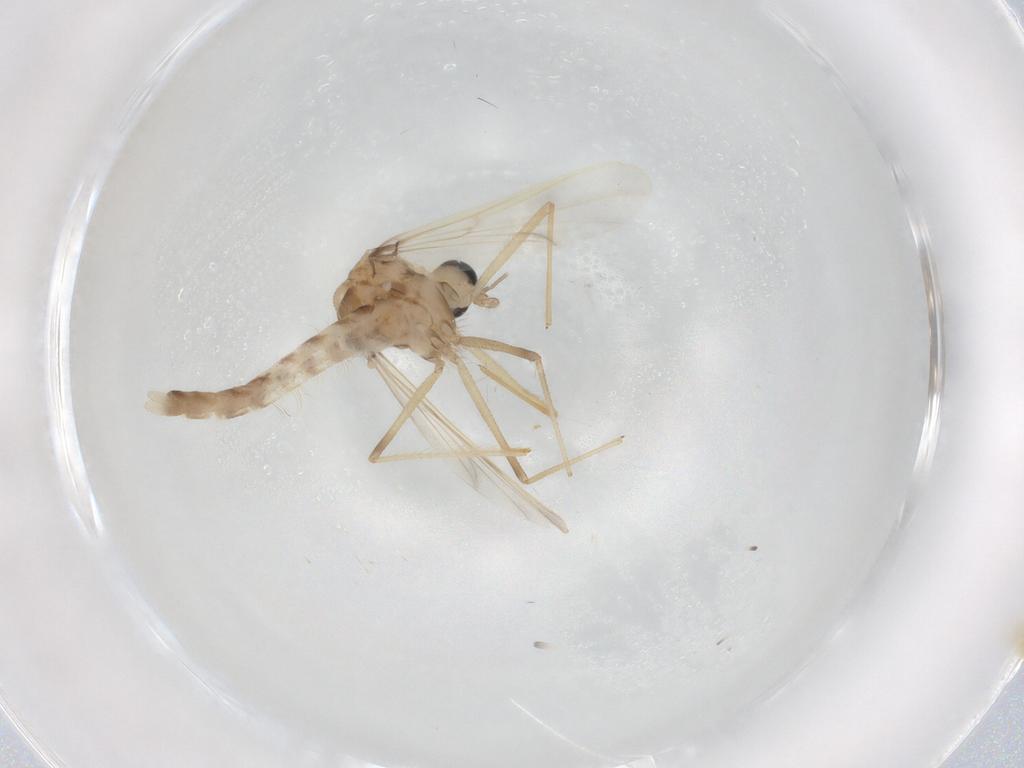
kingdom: Animalia
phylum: Arthropoda
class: Insecta
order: Diptera
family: Chironomidae
